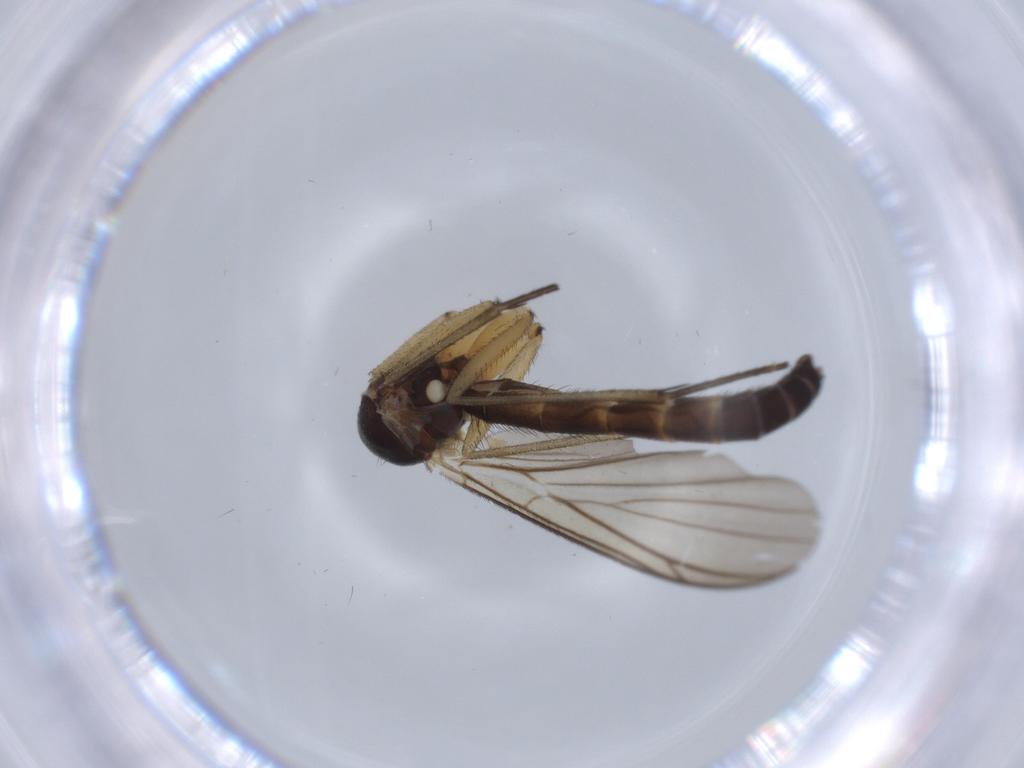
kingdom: Animalia
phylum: Arthropoda
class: Insecta
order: Diptera
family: Keroplatidae
